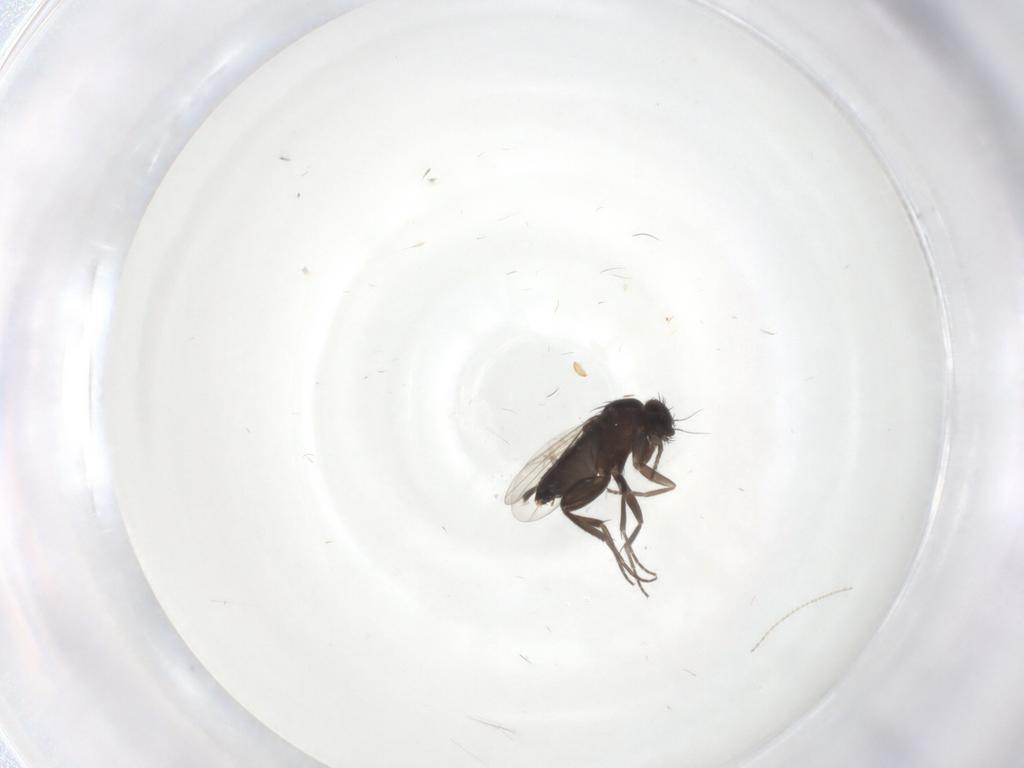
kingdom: Animalia
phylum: Arthropoda
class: Insecta
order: Diptera
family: Phoridae
